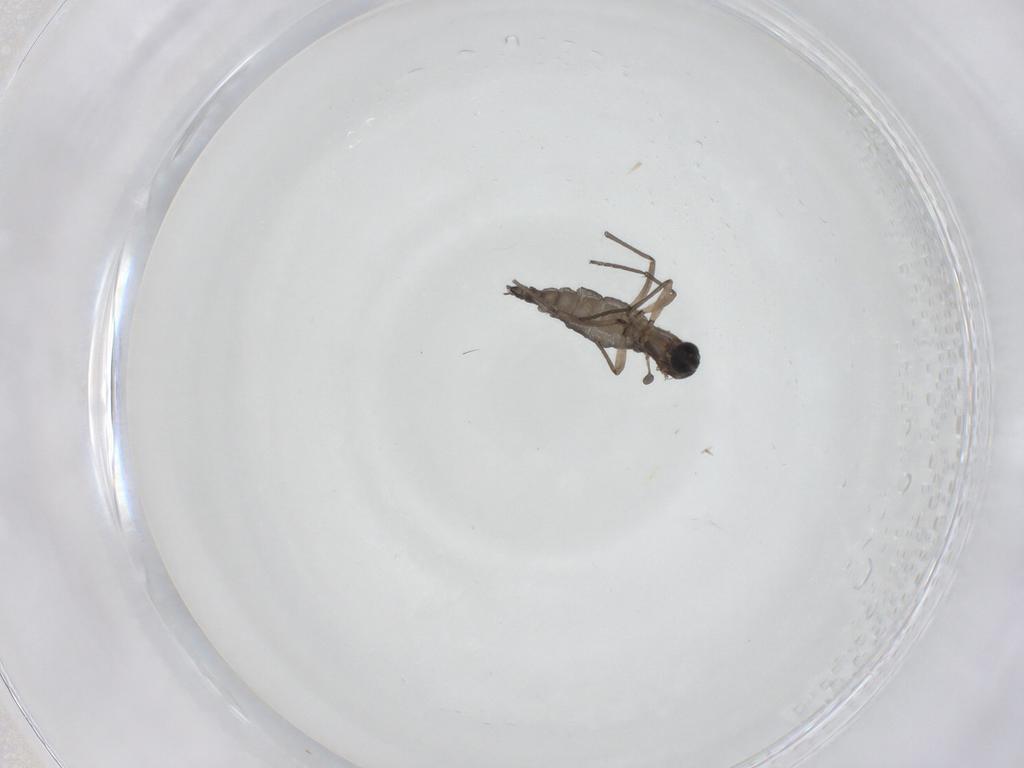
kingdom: Animalia
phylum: Arthropoda
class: Insecta
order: Diptera
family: Sciaridae
